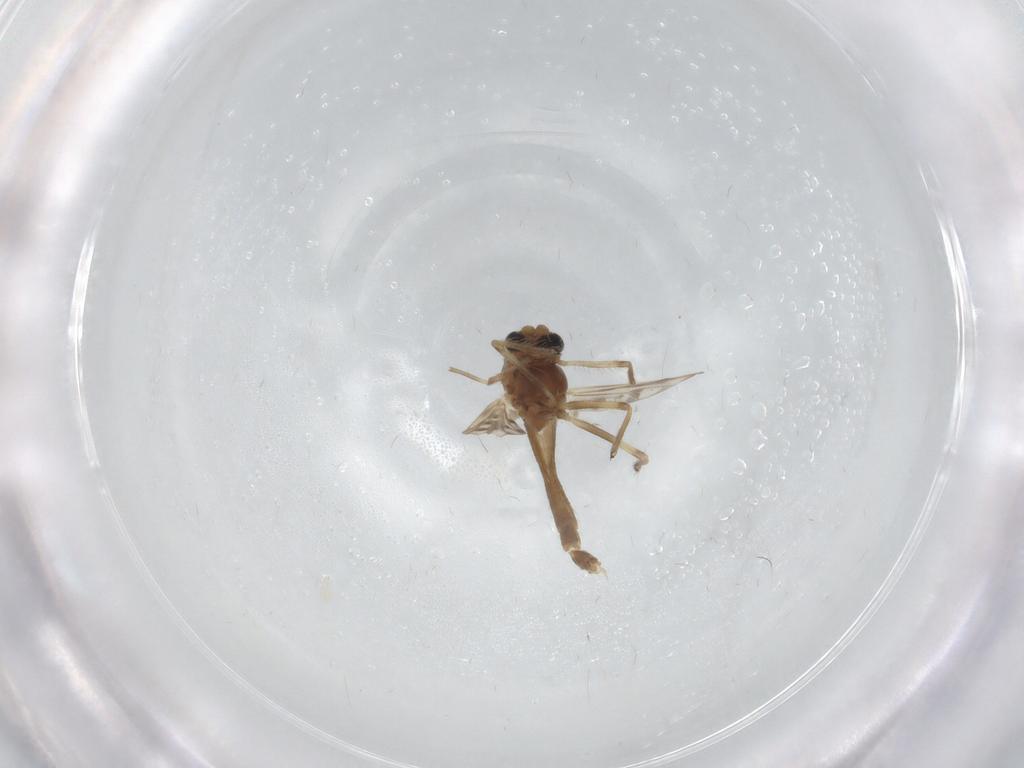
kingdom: Animalia
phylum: Arthropoda
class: Insecta
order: Diptera
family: Chironomidae
